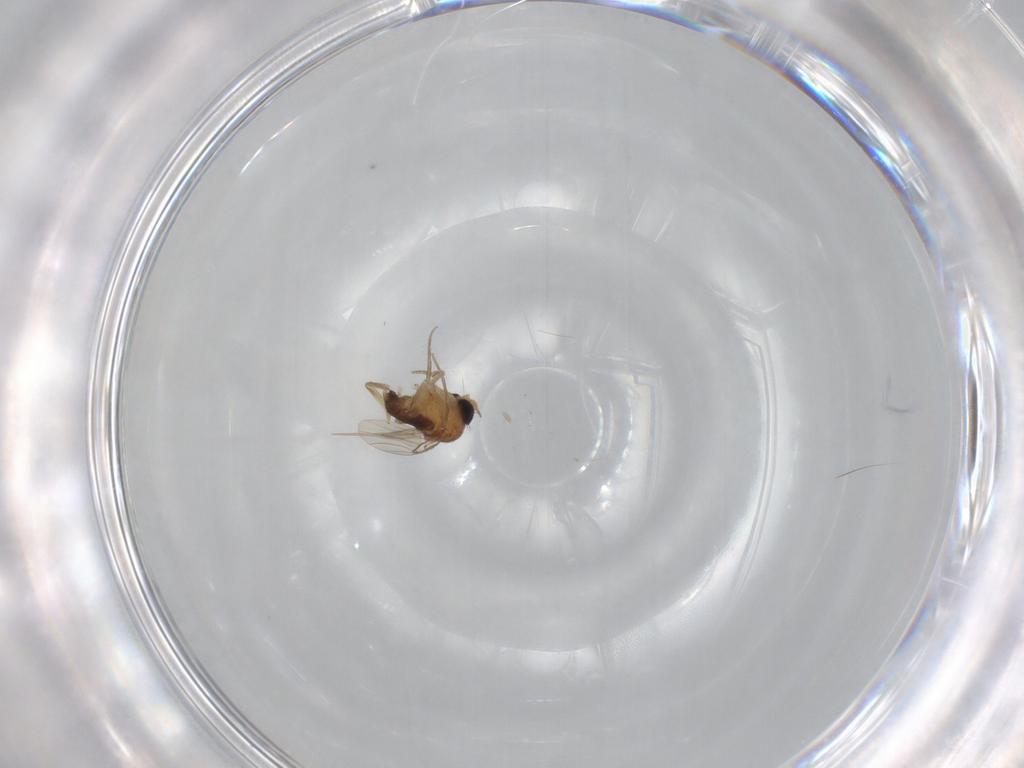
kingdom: Animalia
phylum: Arthropoda
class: Insecta
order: Diptera
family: Phoridae
